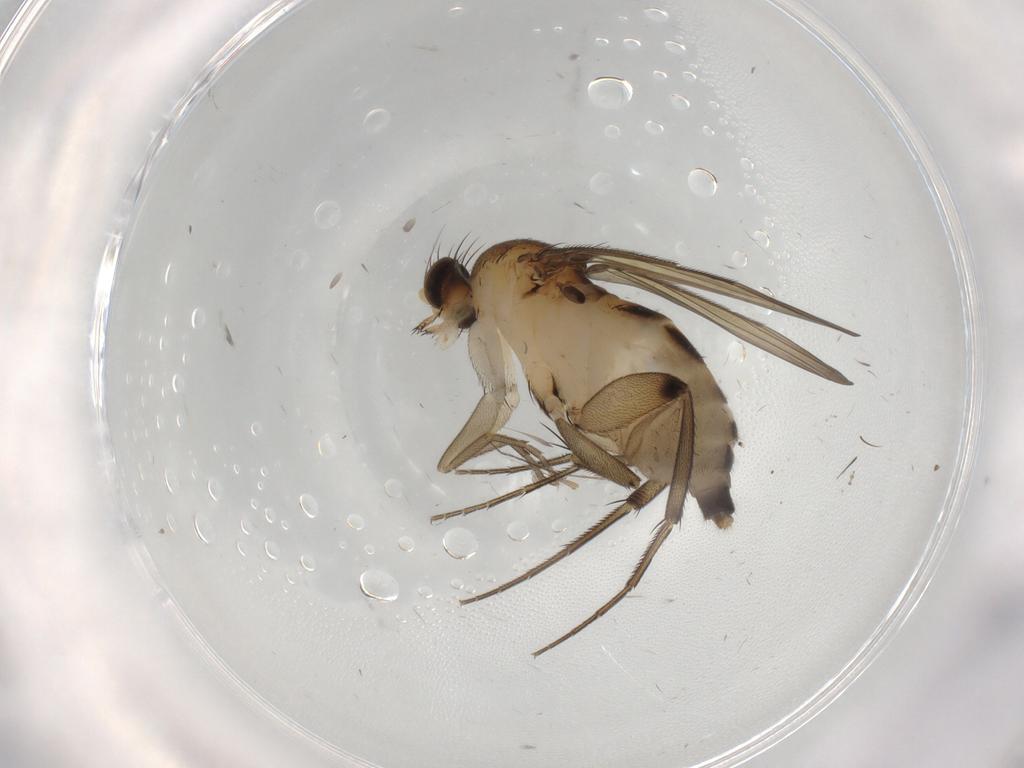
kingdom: Animalia
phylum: Arthropoda
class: Insecta
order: Diptera
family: Phoridae
